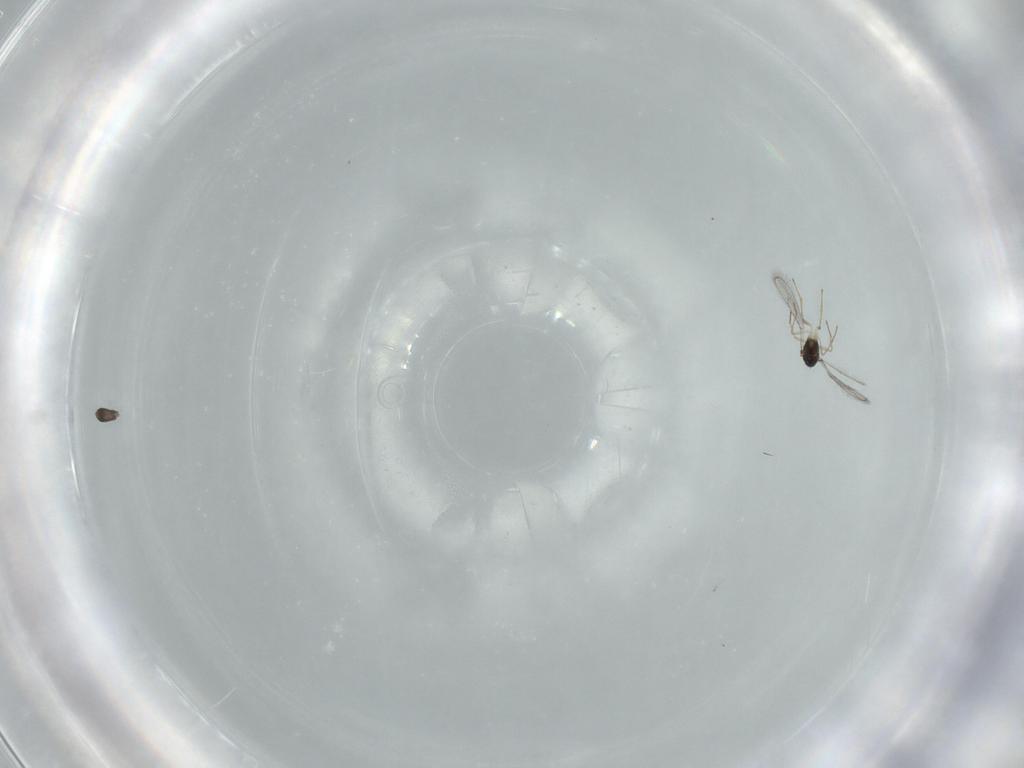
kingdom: Animalia
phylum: Arthropoda
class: Insecta
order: Hymenoptera
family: Pteromalidae
